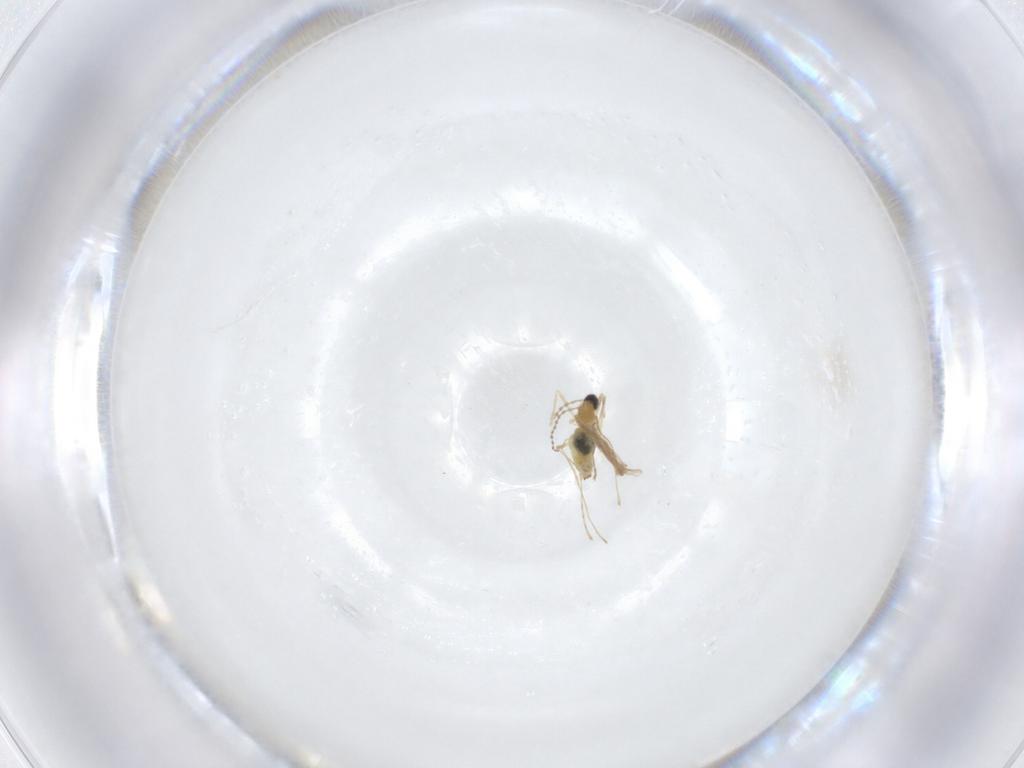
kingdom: Animalia
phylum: Arthropoda
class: Insecta
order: Diptera
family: Cecidomyiidae
